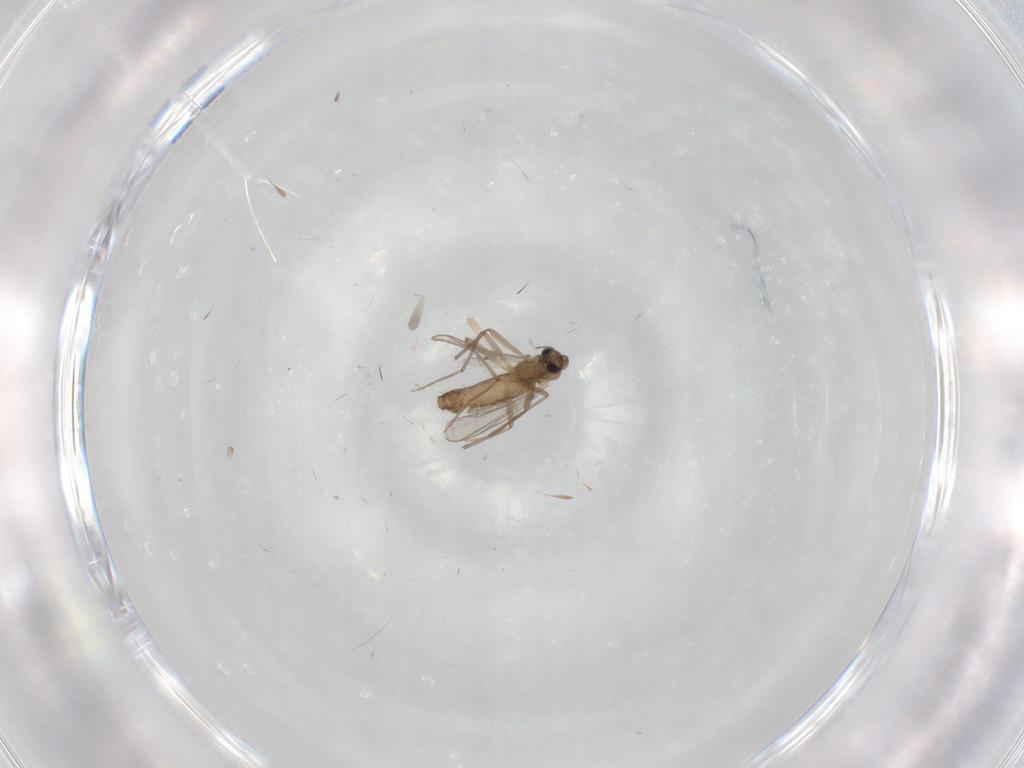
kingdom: Animalia
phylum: Arthropoda
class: Insecta
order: Diptera
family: Chironomidae
